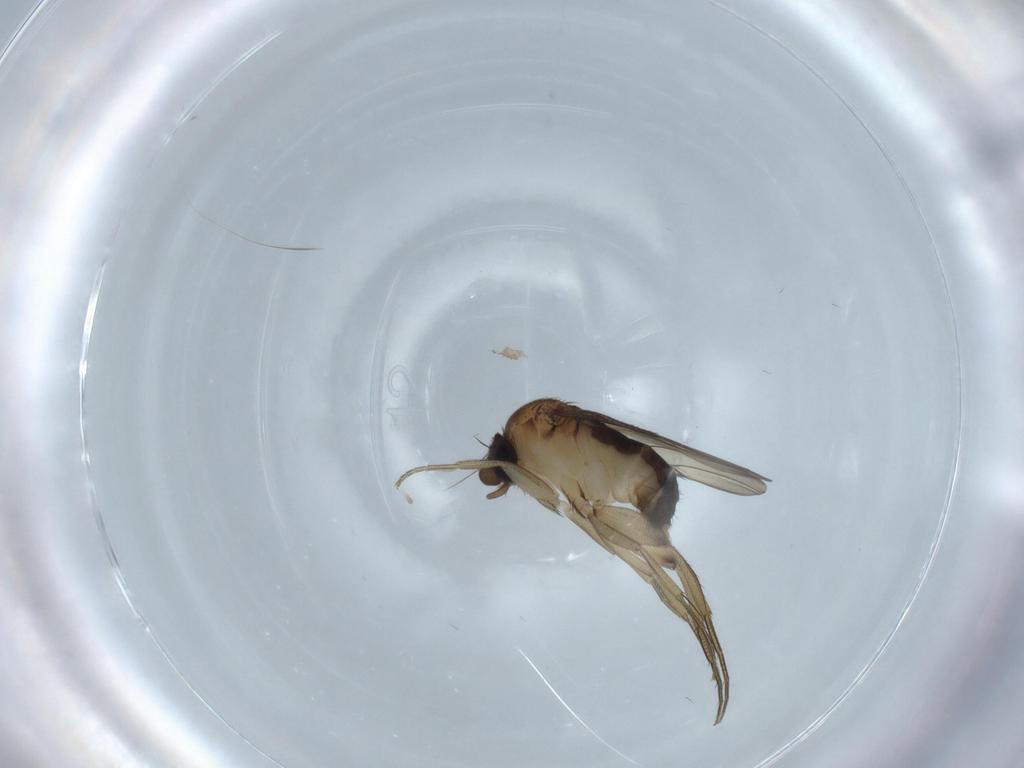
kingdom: Animalia
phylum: Arthropoda
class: Insecta
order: Diptera
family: Phoridae
